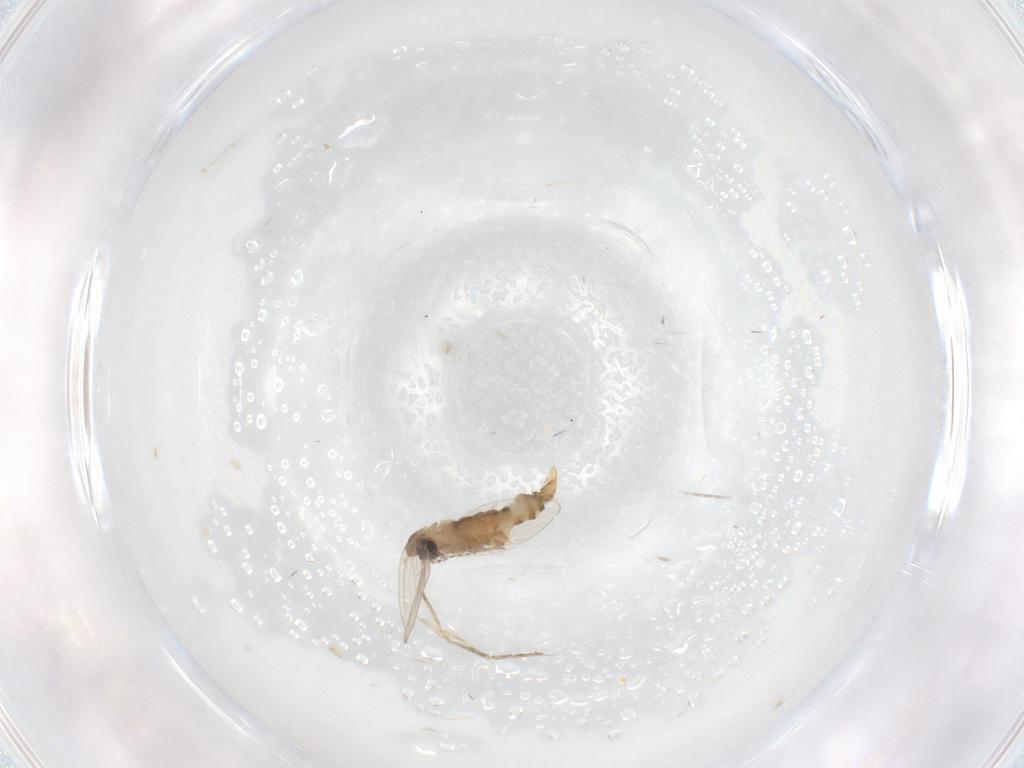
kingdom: Animalia
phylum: Arthropoda
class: Insecta
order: Diptera
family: Psychodidae
